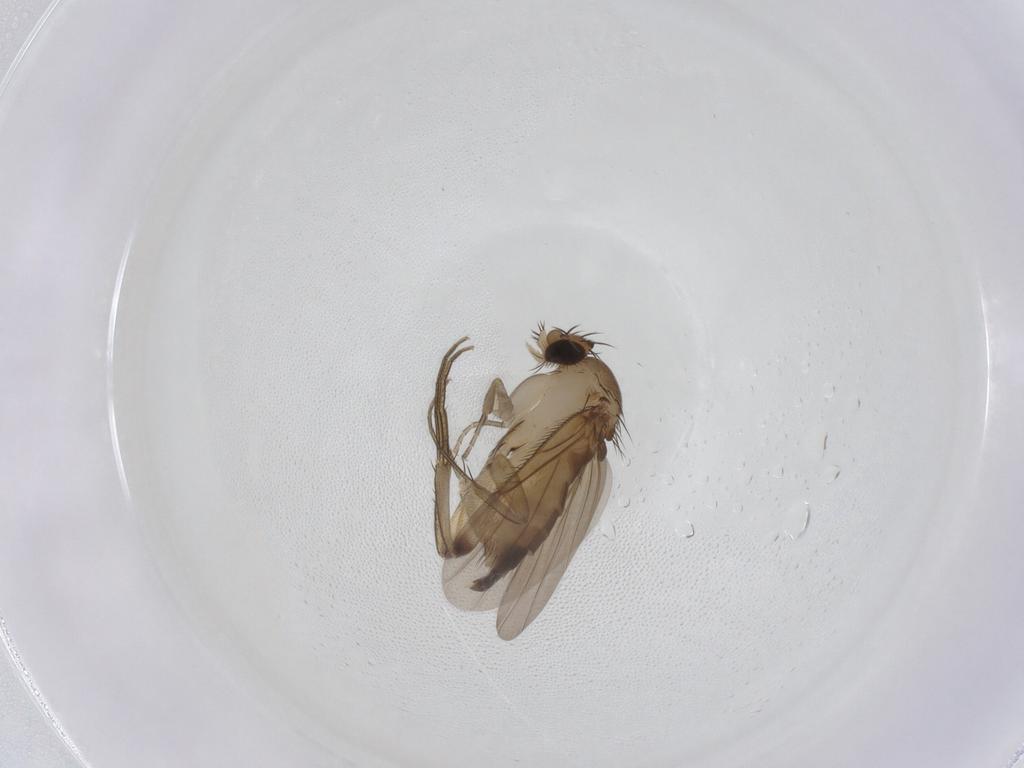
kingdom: Animalia
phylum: Arthropoda
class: Insecta
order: Diptera
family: Phoridae
